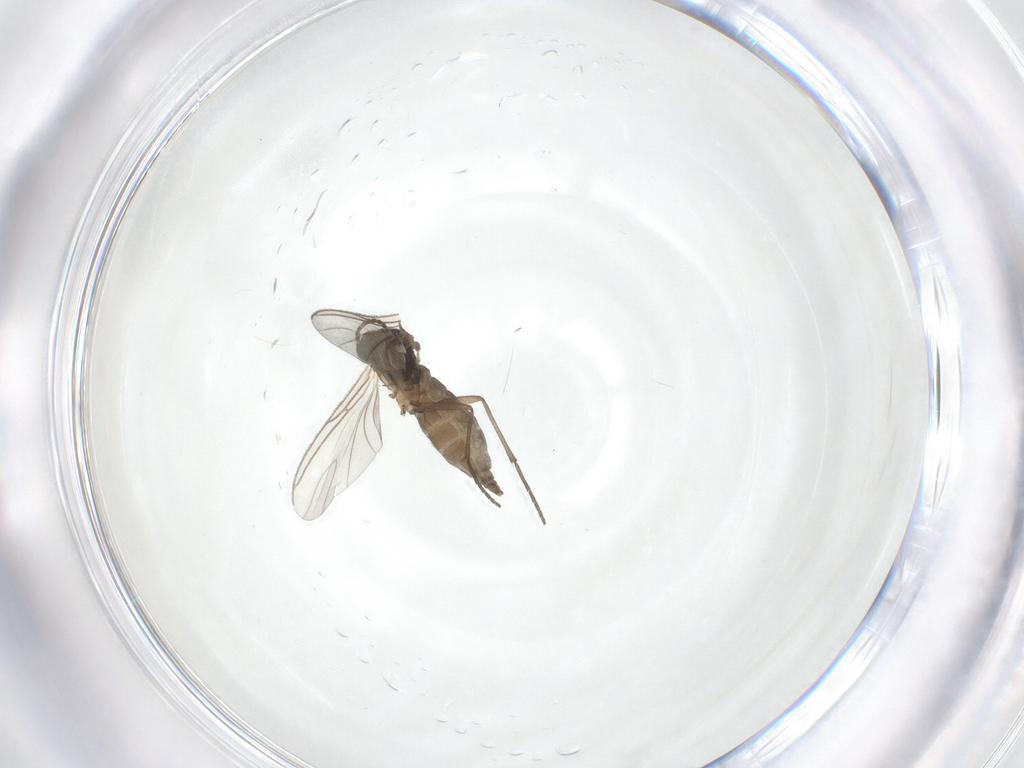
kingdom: Animalia
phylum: Arthropoda
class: Insecta
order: Diptera
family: Sciaridae
